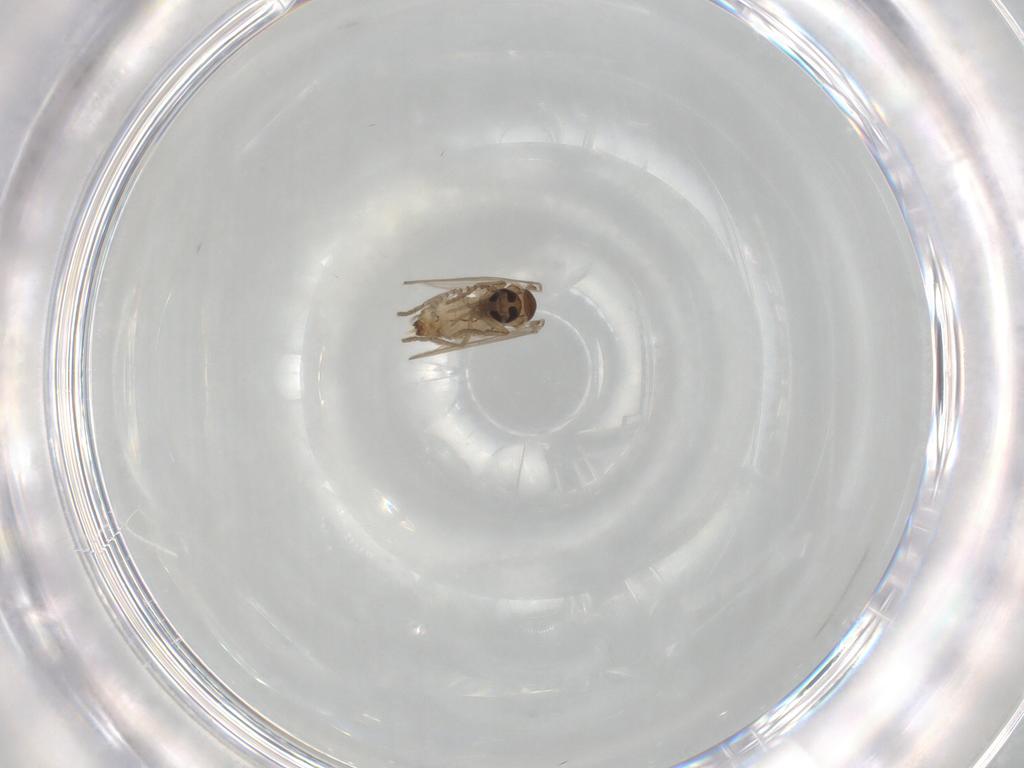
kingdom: Animalia
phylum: Arthropoda
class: Insecta
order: Diptera
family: Psychodidae
